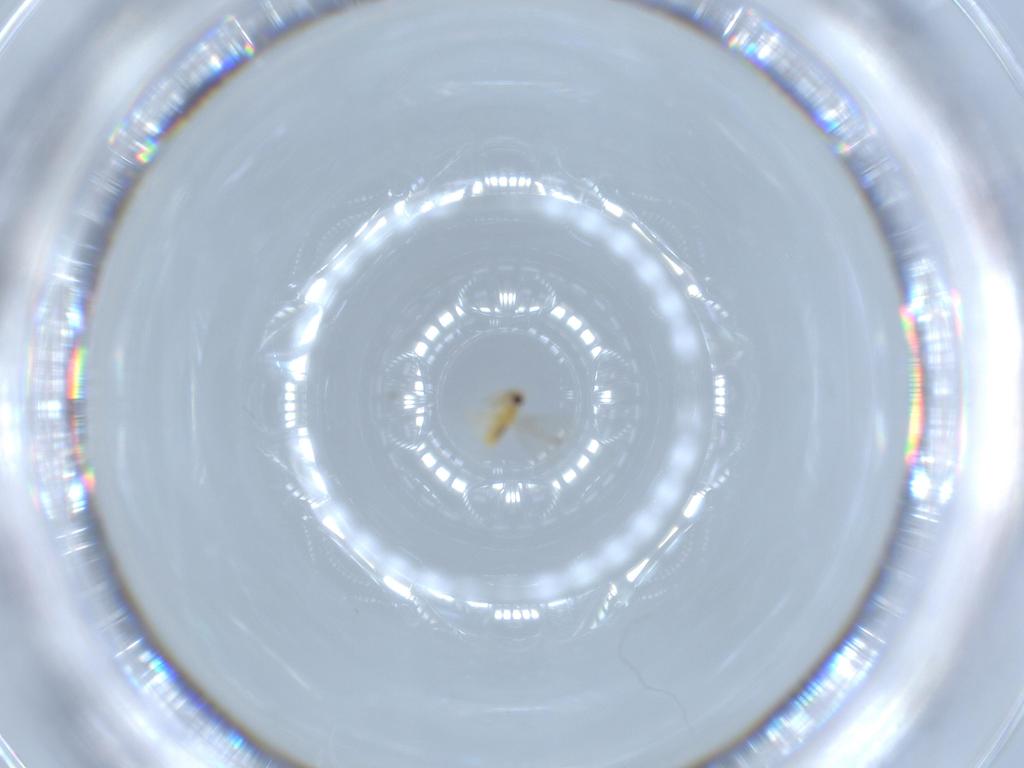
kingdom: Animalia
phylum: Arthropoda
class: Insecta
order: Hymenoptera
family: Aphelinidae
